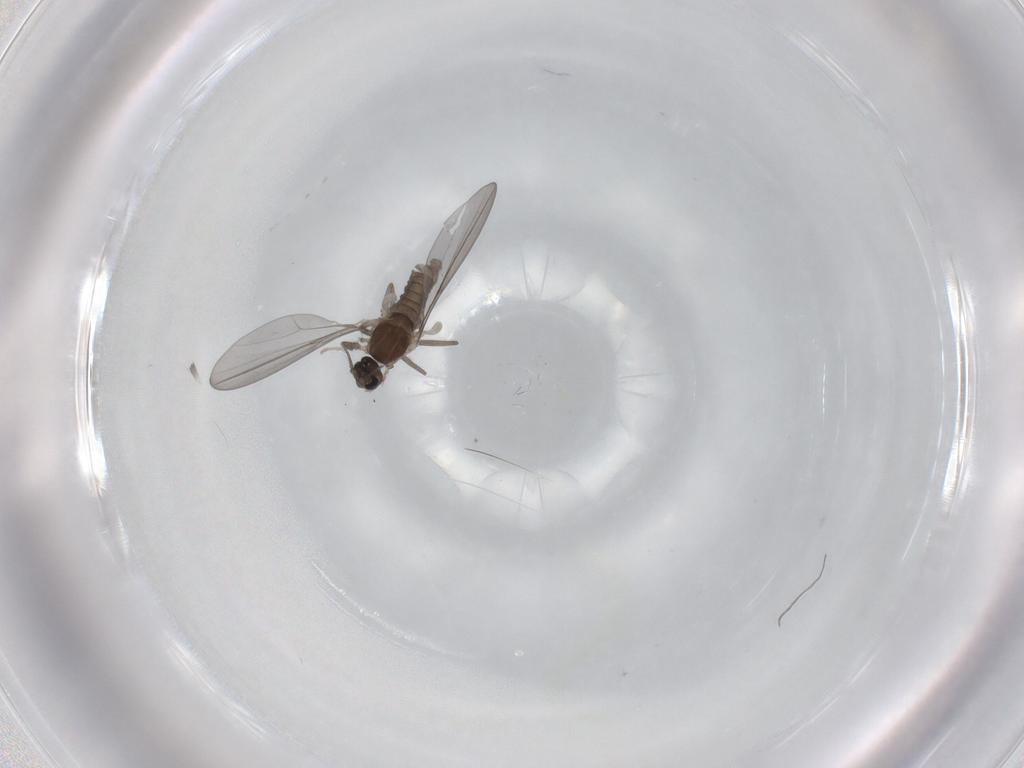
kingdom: Animalia
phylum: Arthropoda
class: Insecta
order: Diptera
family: Cecidomyiidae
